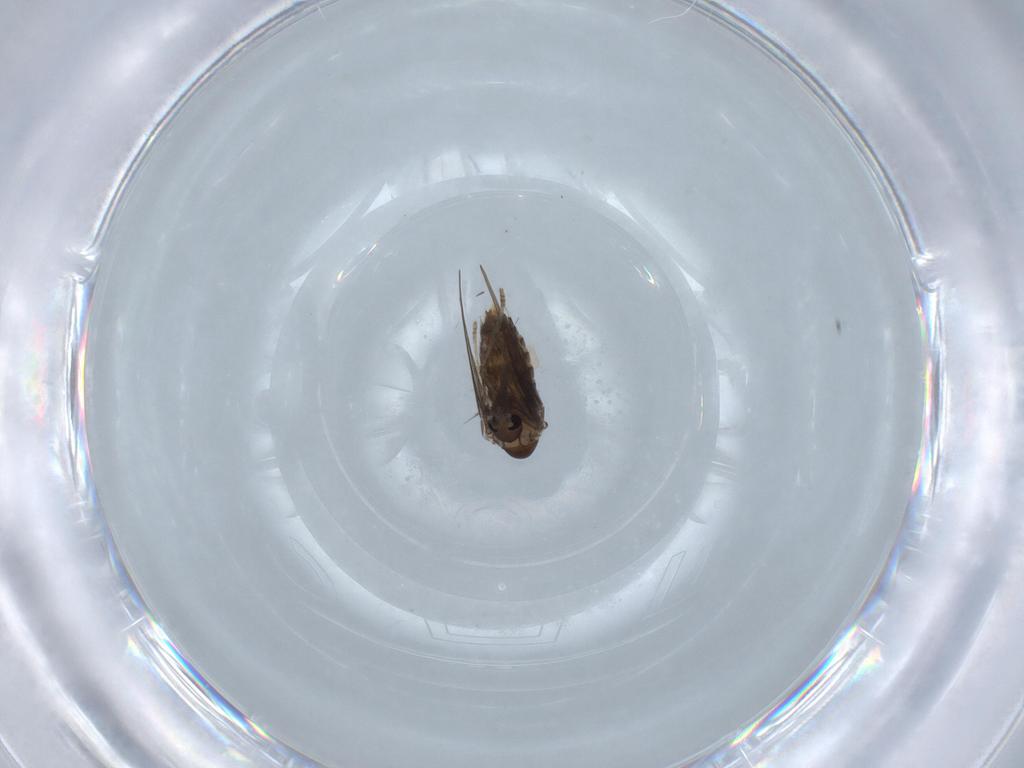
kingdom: Animalia
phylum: Arthropoda
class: Insecta
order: Diptera
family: Psychodidae
